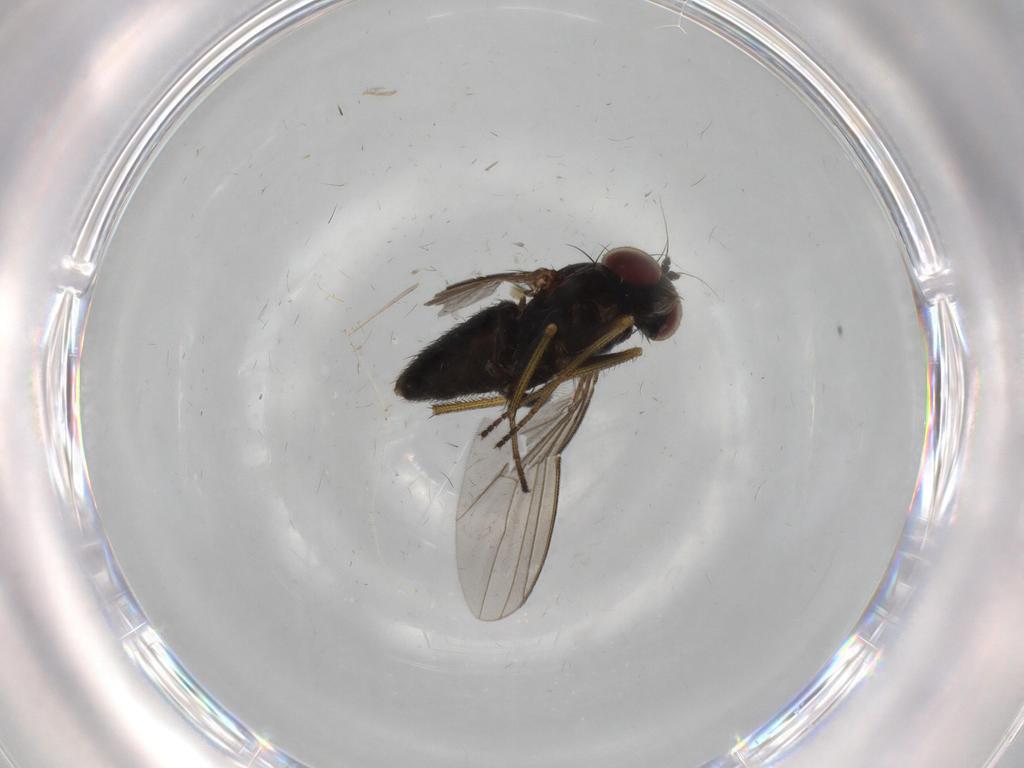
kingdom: Animalia
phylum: Arthropoda
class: Insecta
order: Diptera
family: Dolichopodidae
